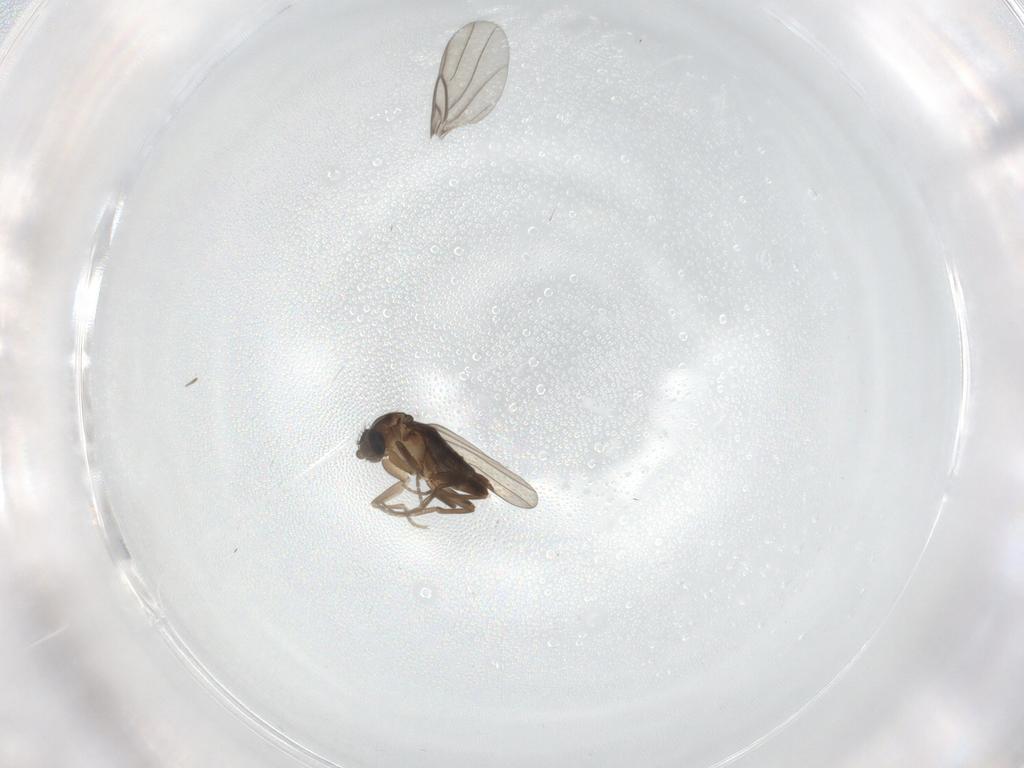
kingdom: Animalia
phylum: Arthropoda
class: Insecta
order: Diptera
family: Phoridae
